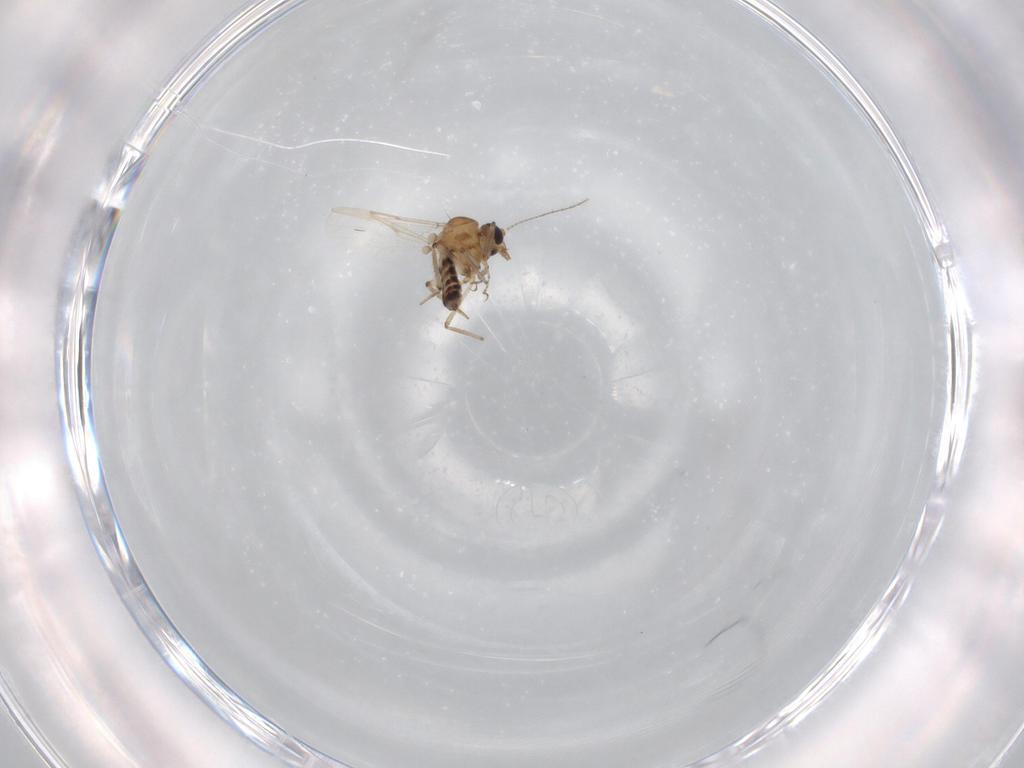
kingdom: Animalia
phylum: Arthropoda
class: Insecta
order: Diptera
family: Ceratopogonidae
